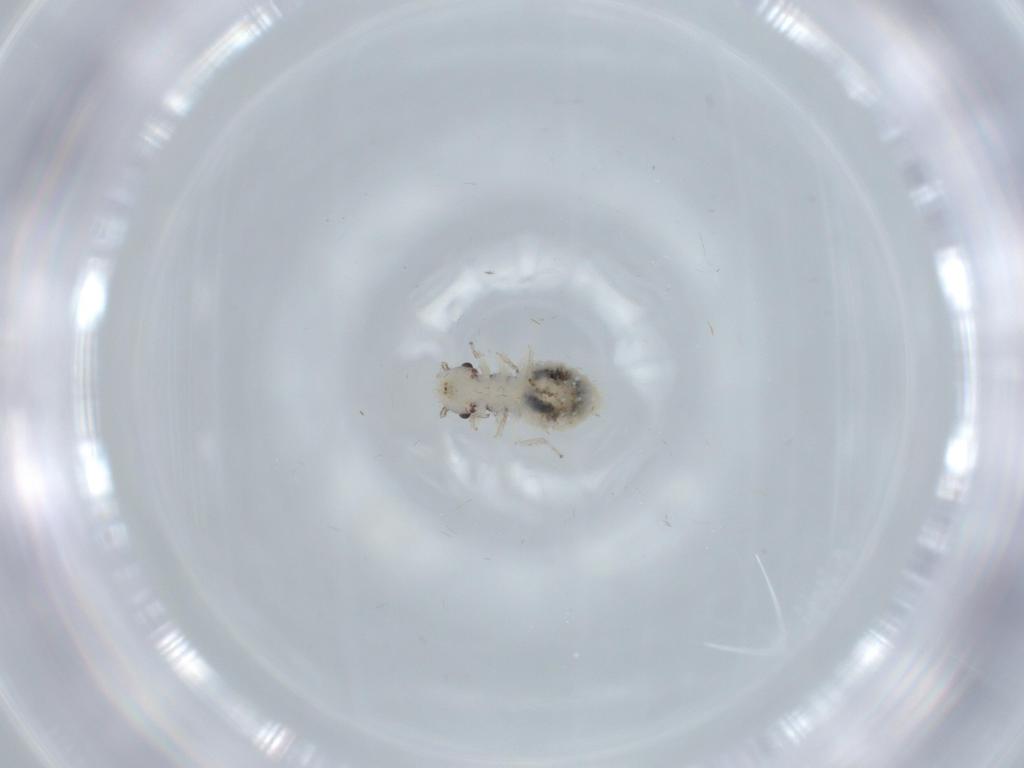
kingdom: Animalia
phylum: Arthropoda
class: Insecta
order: Psocodea
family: Pseudocaeciliidae
